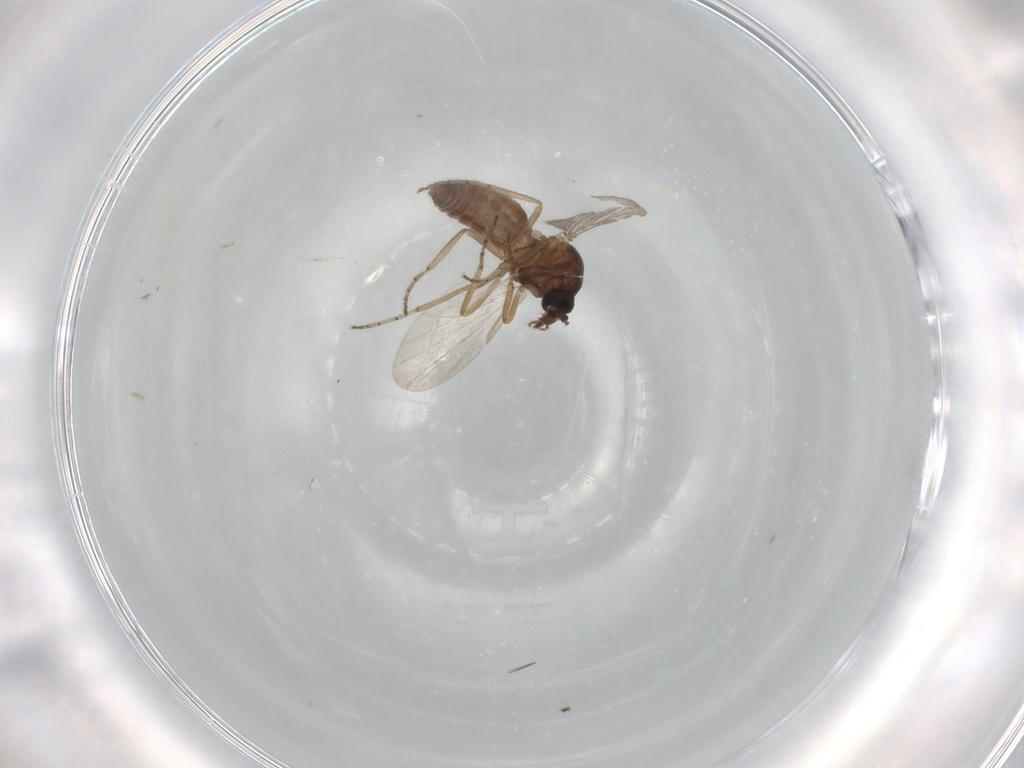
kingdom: Animalia
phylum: Arthropoda
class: Insecta
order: Diptera
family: Ceratopogonidae
